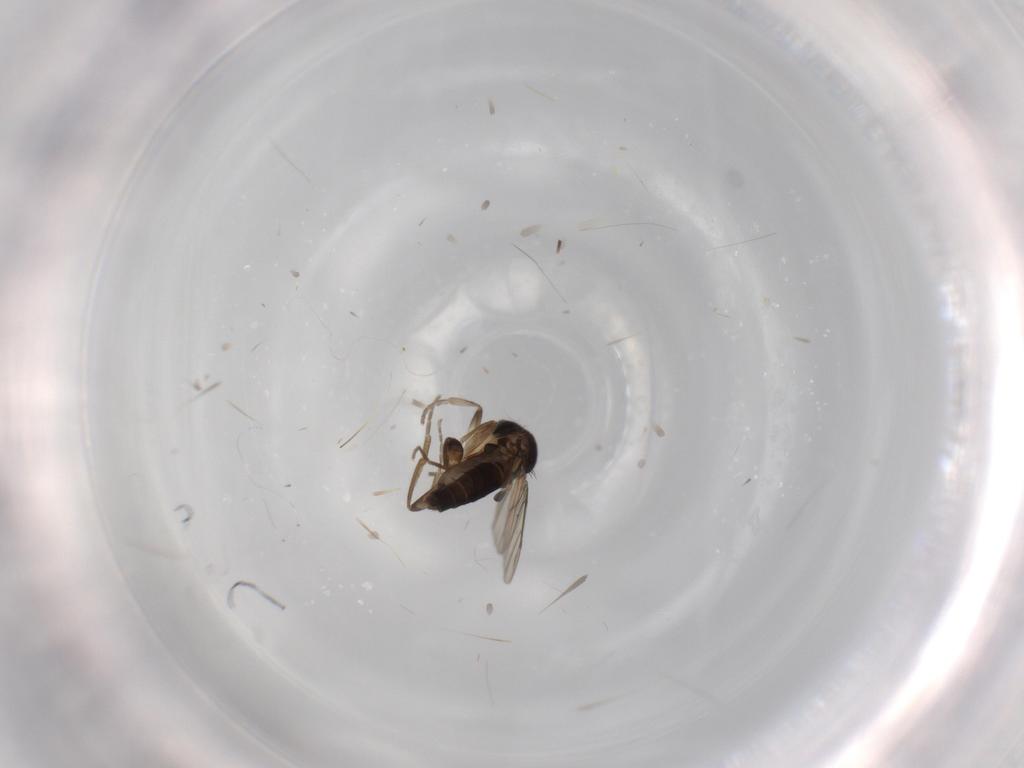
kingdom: Animalia
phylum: Arthropoda
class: Insecta
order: Diptera
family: Phoridae
